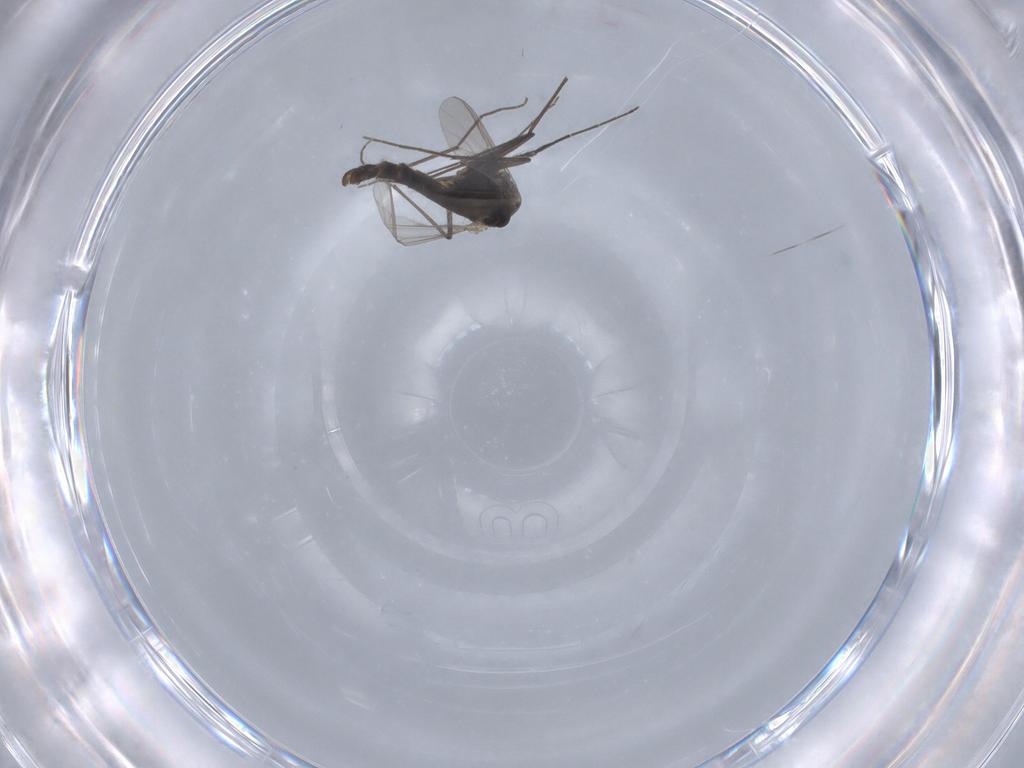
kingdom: Animalia
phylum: Arthropoda
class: Insecta
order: Diptera
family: Chironomidae
